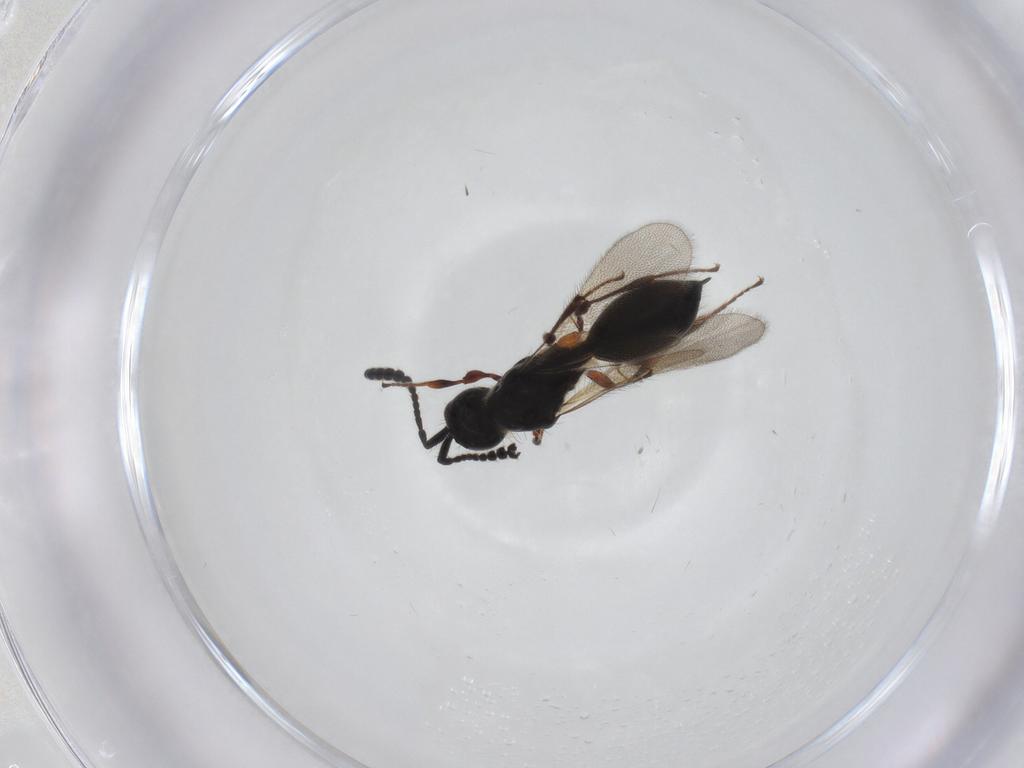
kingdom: Animalia
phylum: Arthropoda
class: Insecta
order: Hymenoptera
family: Diapriidae
